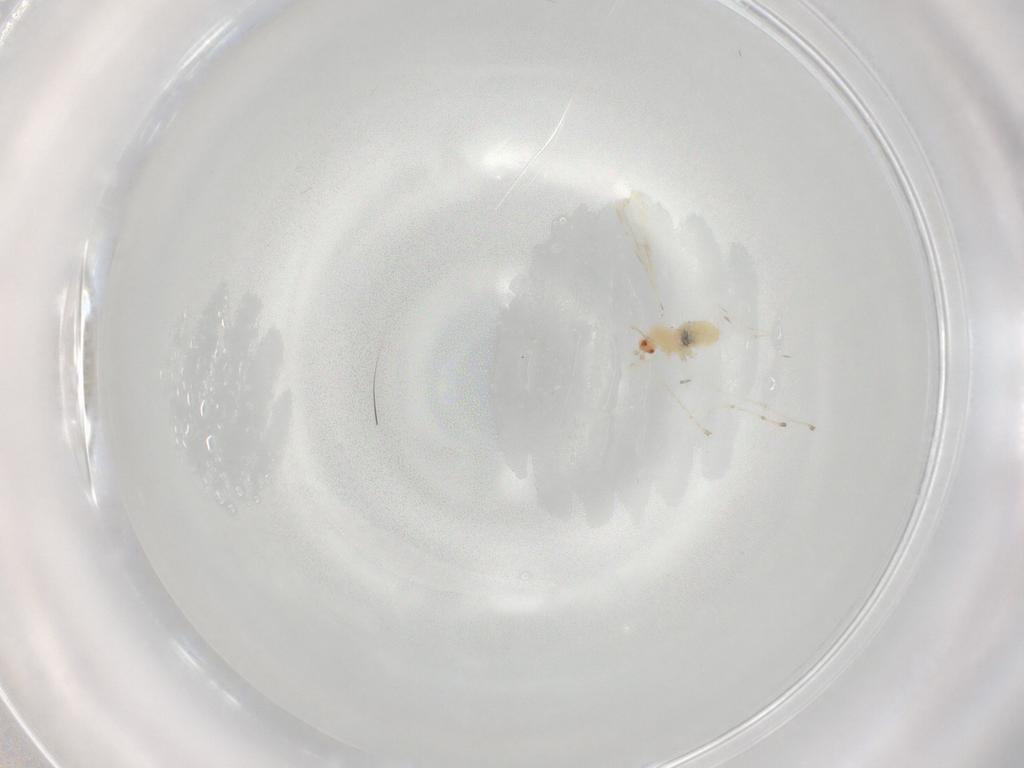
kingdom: Animalia
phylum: Arthropoda
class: Insecta
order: Diptera
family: Cecidomyiidae
